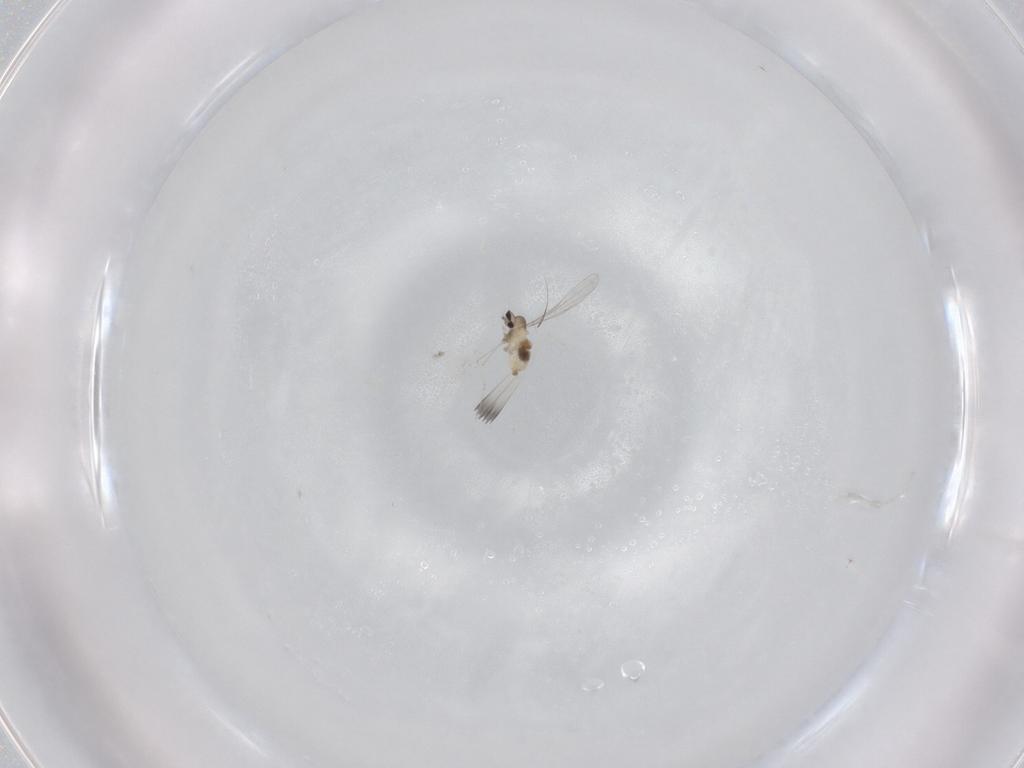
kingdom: Animalia
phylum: Arthropoda
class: Insecta
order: Diptera
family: Cecidomyiidae
